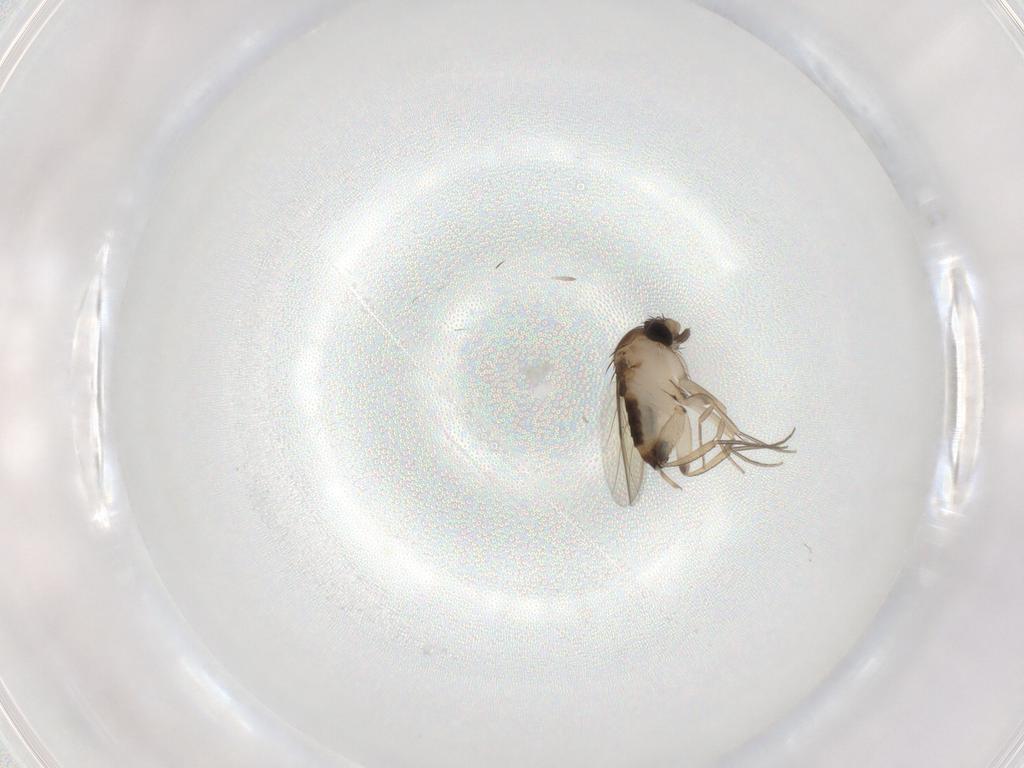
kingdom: Animalia
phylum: Arthropoda
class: Insecta
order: Diptera
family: Phoridae
